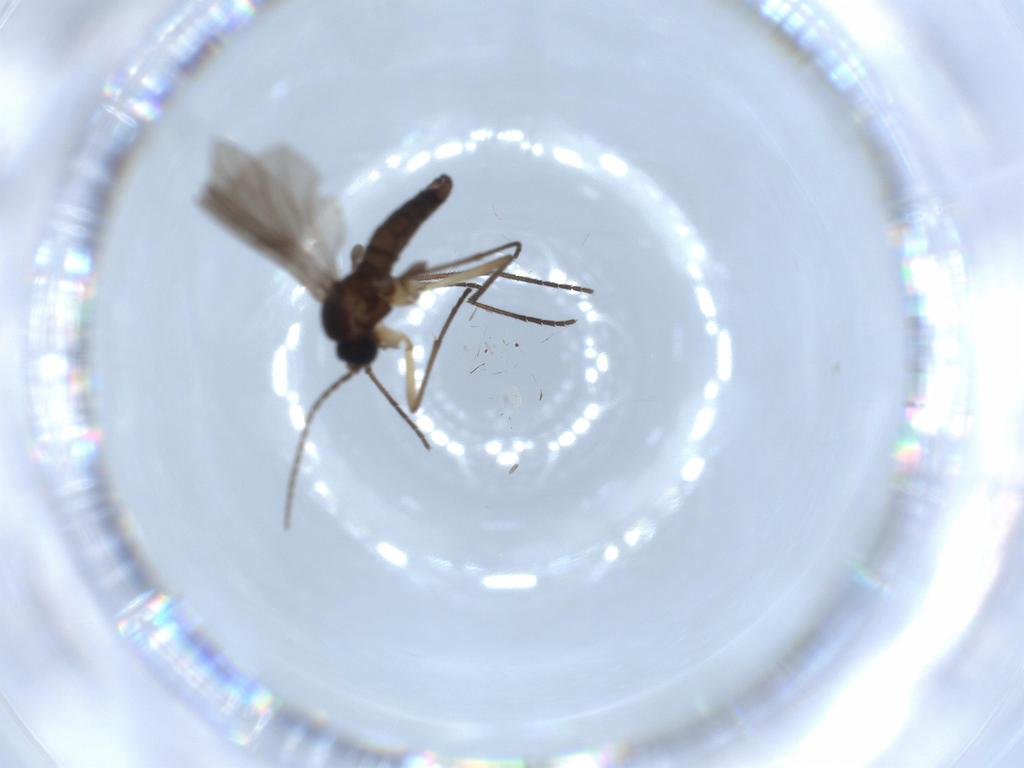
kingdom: Animalia
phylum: Arthropoda
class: Insecta
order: Diptera
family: Sciaridae
